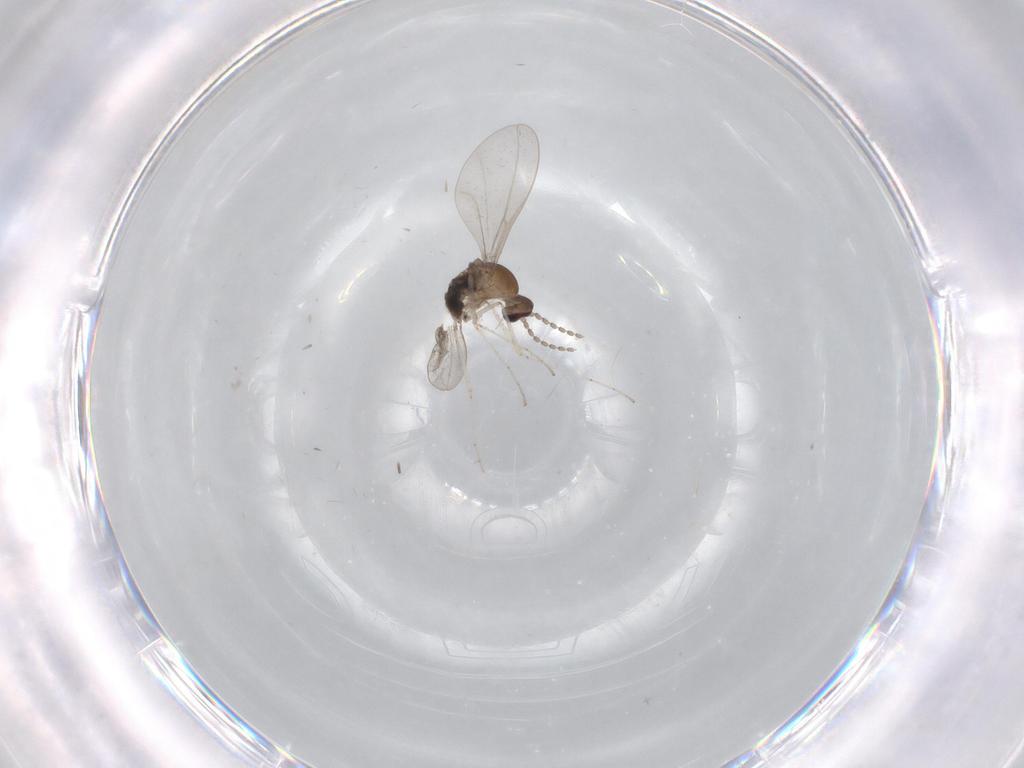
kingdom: Animalia
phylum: Arthropoda
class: Insecta
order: Diptera
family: Cecidomyiidae
